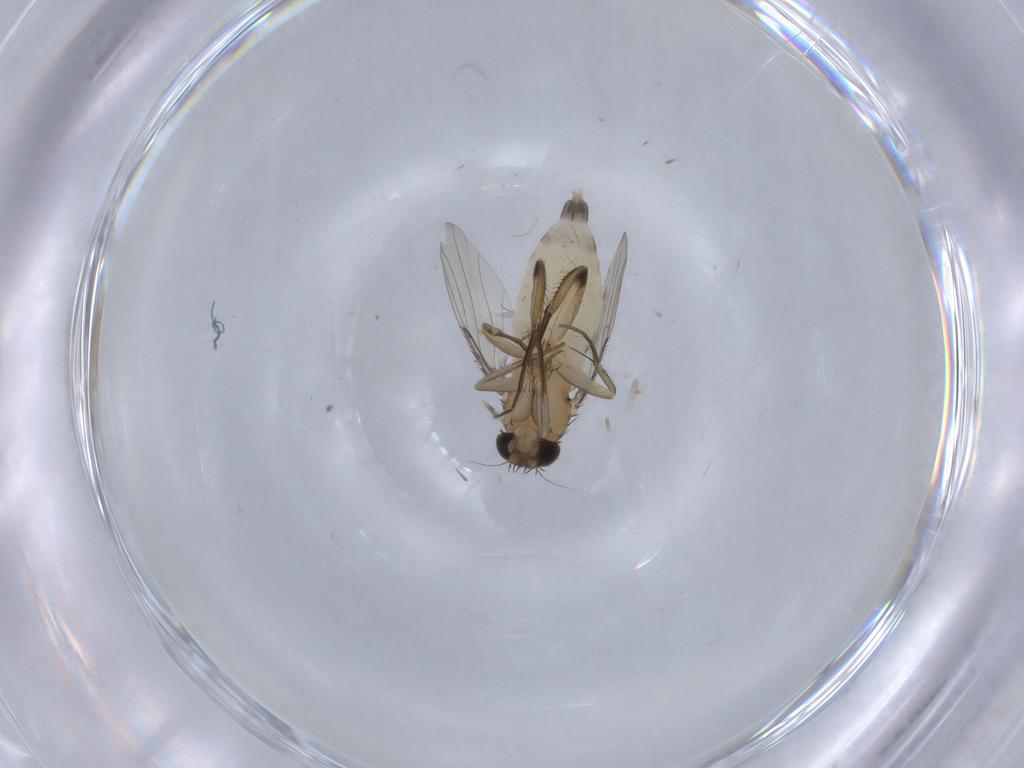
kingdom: Animalia
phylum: Arthropoda
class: Insecta
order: Diptera
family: Phoridae
